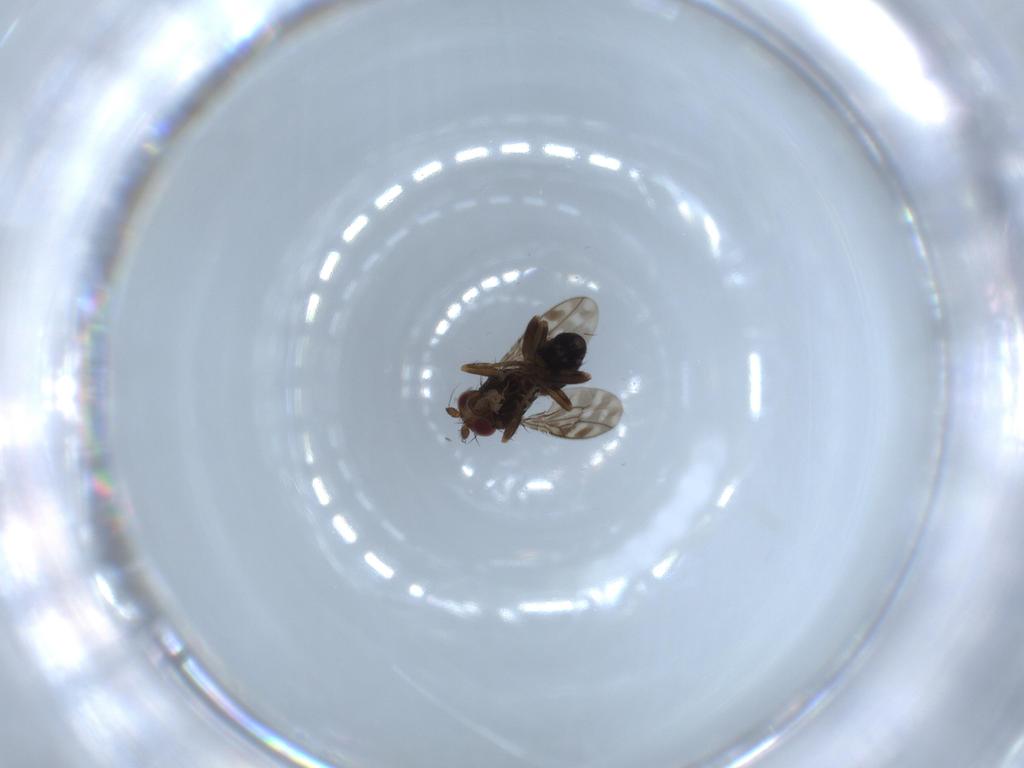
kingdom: Animalia
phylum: Arthropoda
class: Insecta
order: Diptera
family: Sphaeroceridae
